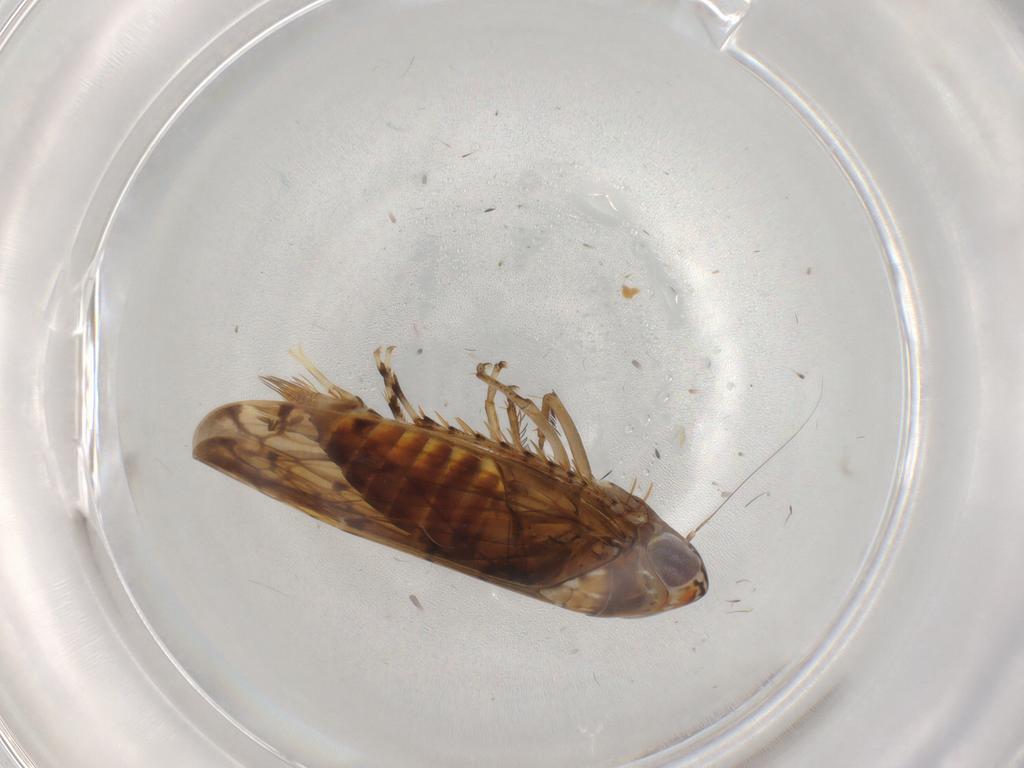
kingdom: Animalia
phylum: Arthropoda
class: Insecta
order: Hemiptera
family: Cicadellidae
